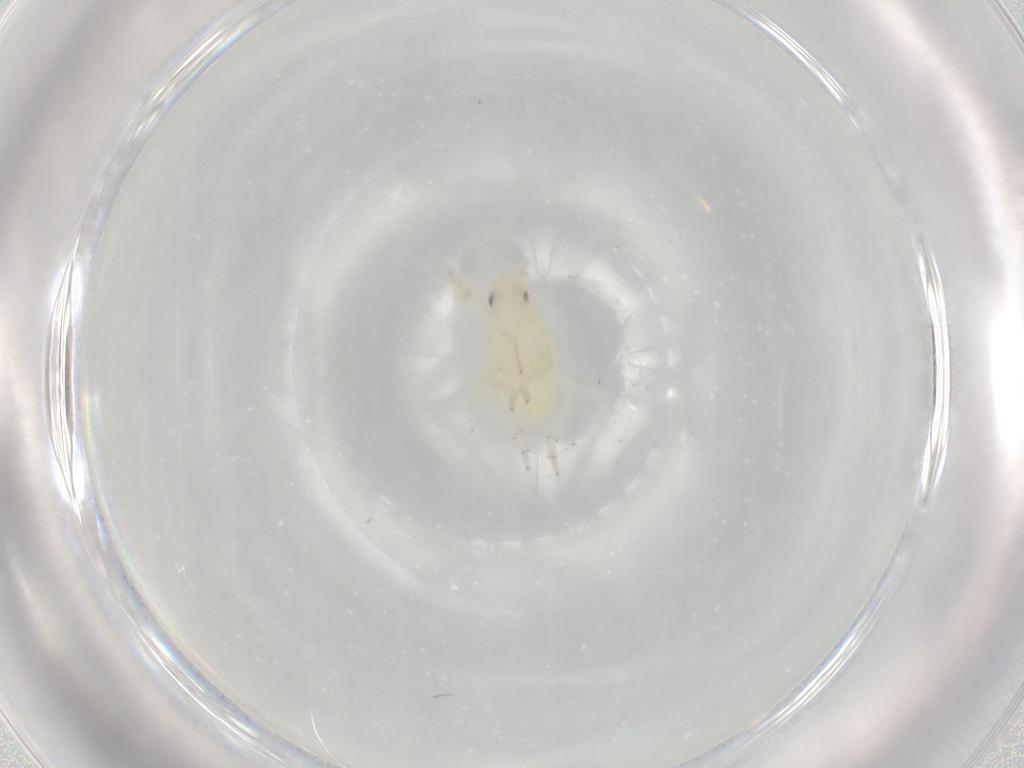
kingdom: Animalia
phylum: Arthropoda
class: Insecta
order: Hemiptera
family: Tropiduchidae
